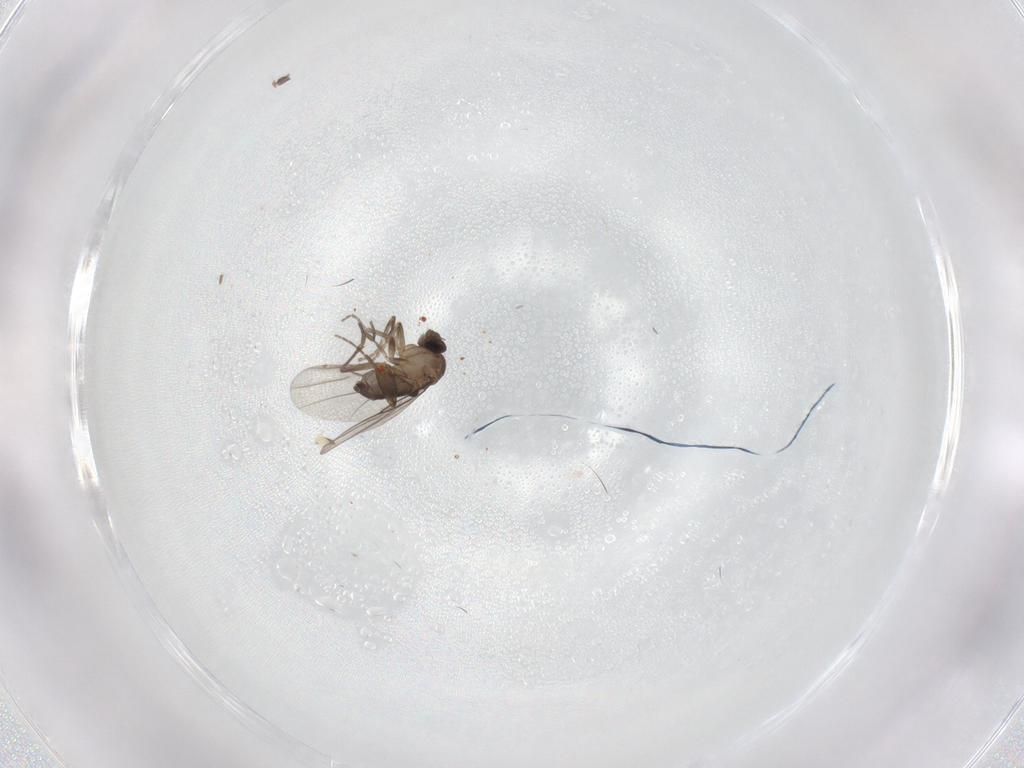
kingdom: Animalia
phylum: Arthropoda
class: Insecta
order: Diptera
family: Phoridae
